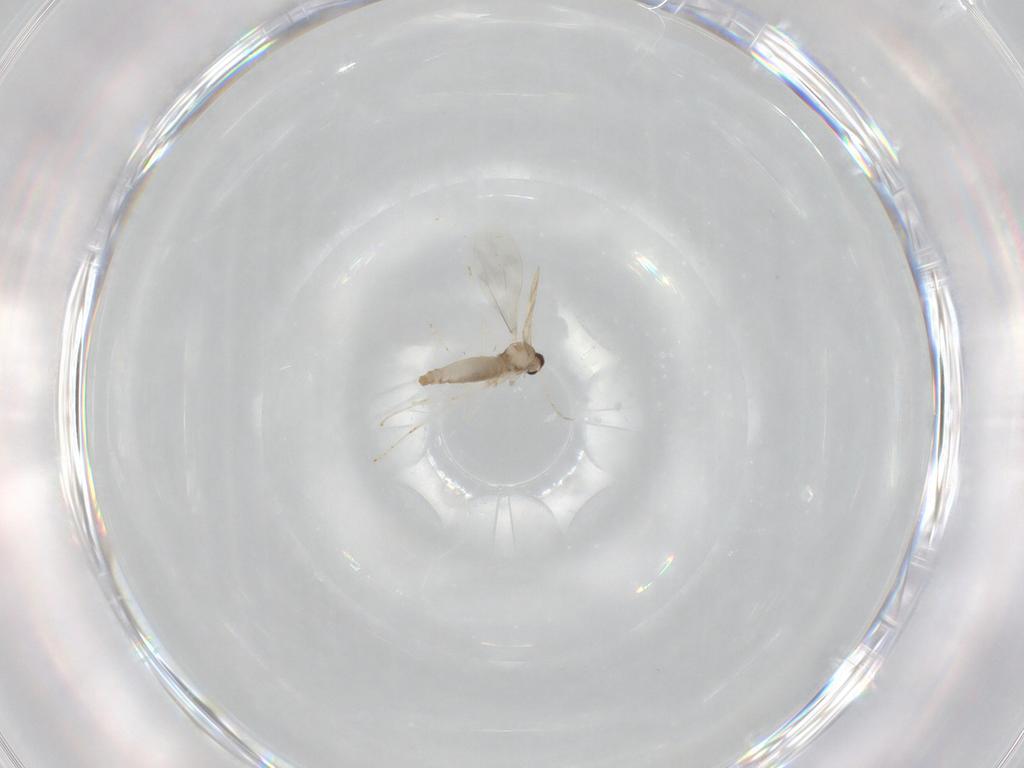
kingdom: Animalia
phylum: Arthropoda
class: Insecta
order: Diptera
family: Cecidomyiidae
